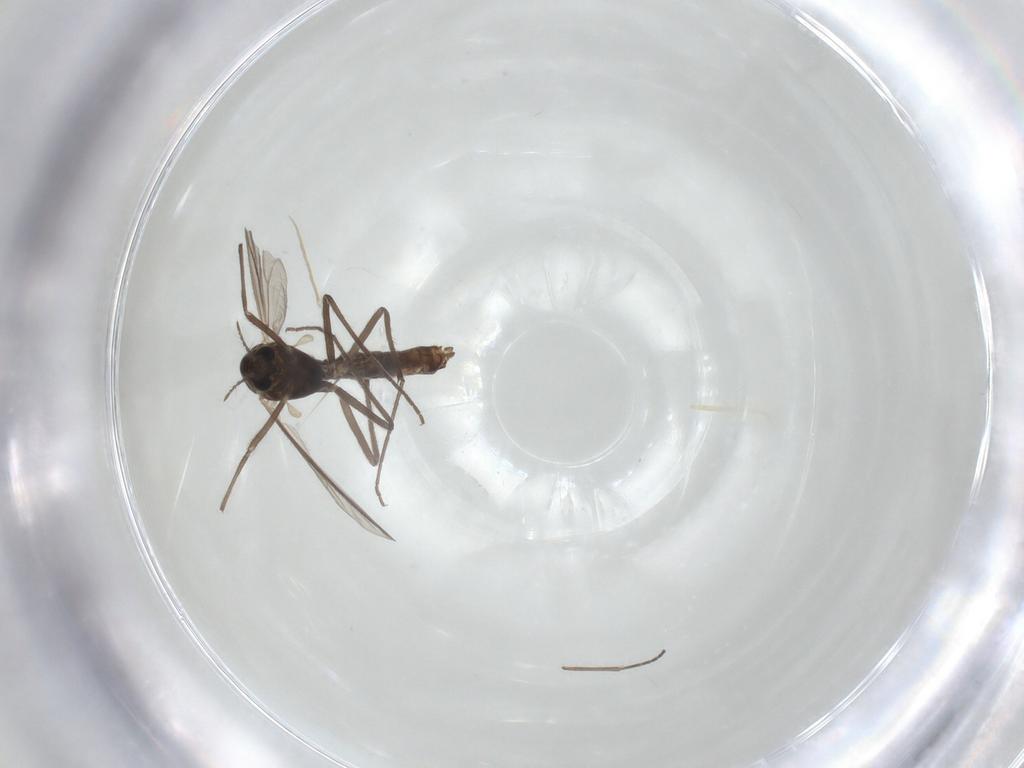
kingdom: Animalia
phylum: Arthropoda
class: Insecta
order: Diptera
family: Chironomidae
